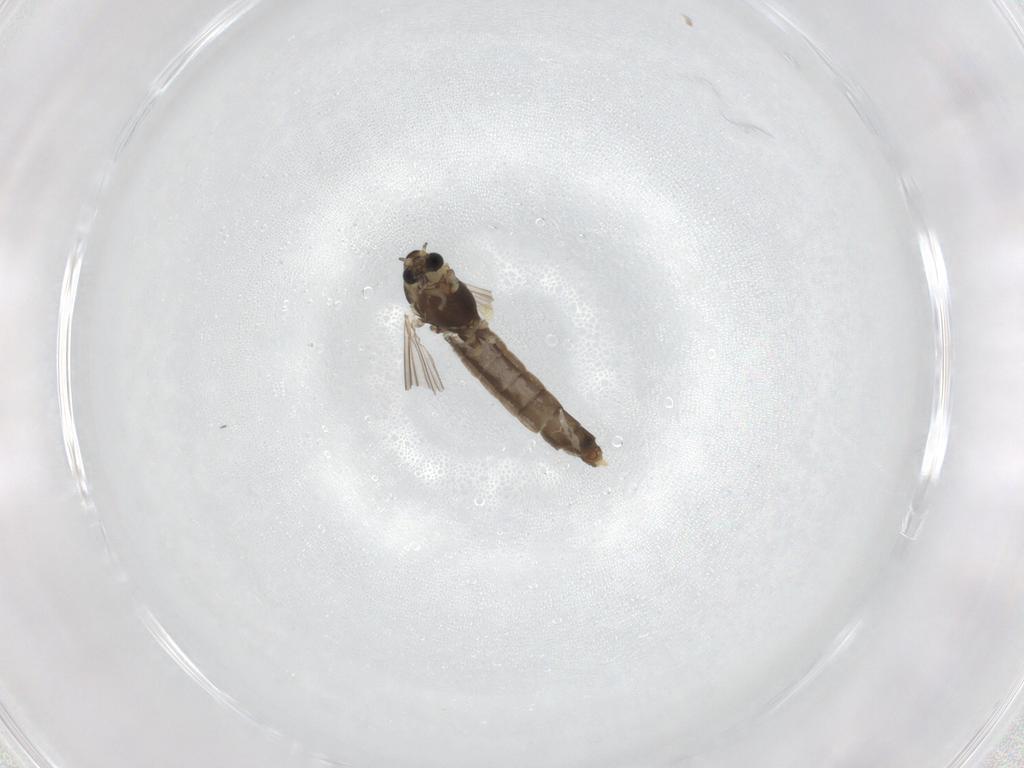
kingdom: Animalia
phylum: Arthropoda
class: Insecta
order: Diptera
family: Chironomidae
